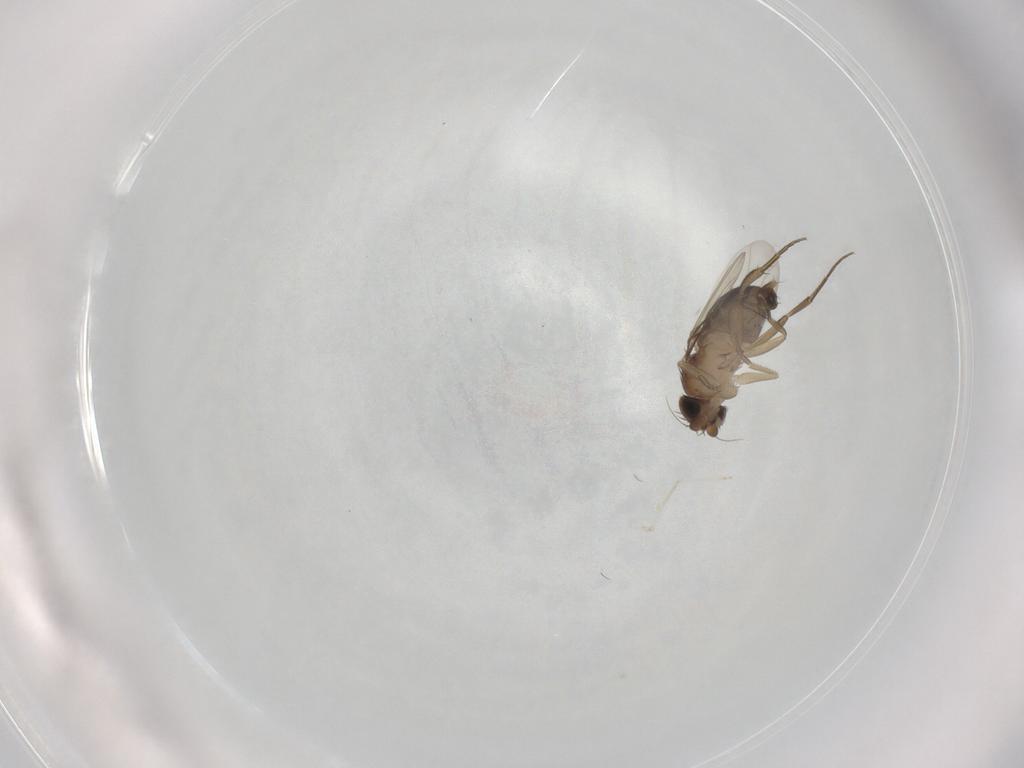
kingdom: Animalia
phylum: Arthropoda
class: Insecta
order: Diptera
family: Phoridae
